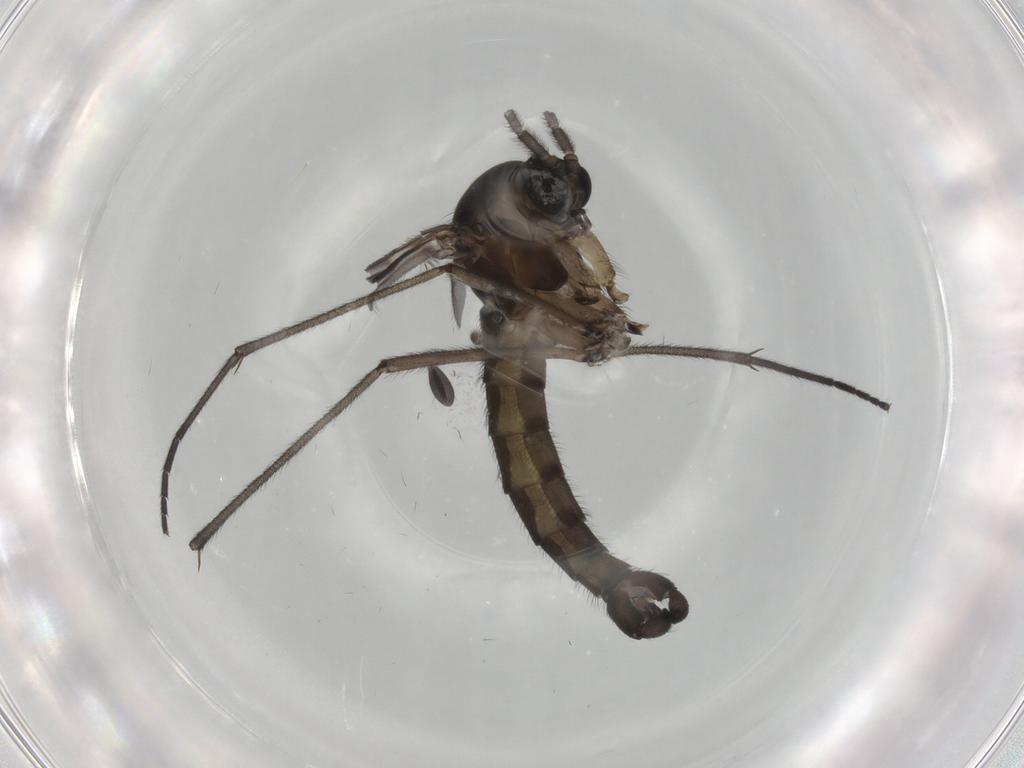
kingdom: Animalia
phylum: Arthropoda
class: Insecta
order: Diptera
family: Sciaridae
